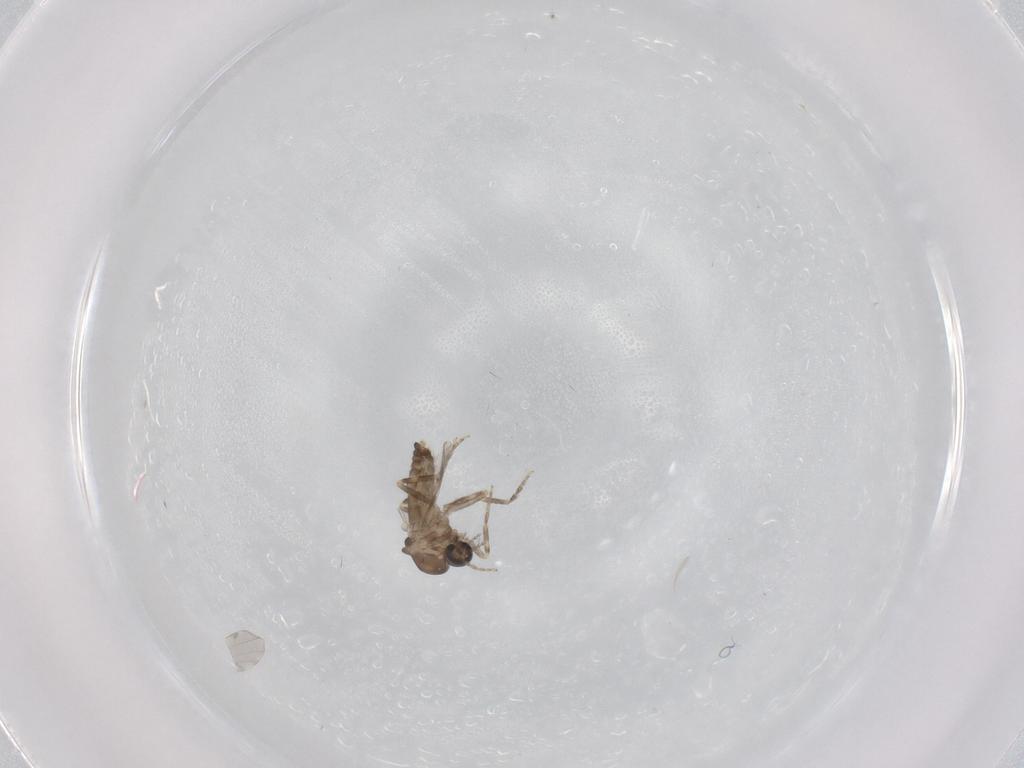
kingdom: Animalia
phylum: Arthropoda
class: Insecta
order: Diptera
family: Ceratopogonidae
